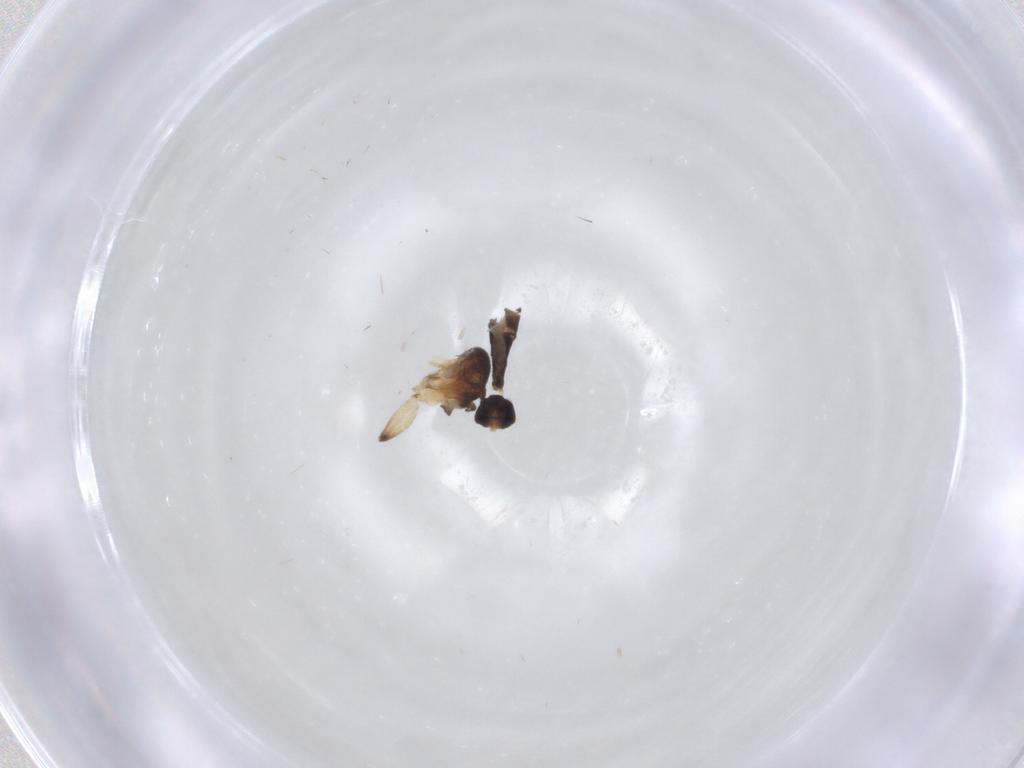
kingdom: Animalia
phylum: Arthropoda
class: Insecta
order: Diptera
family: Phoridae
